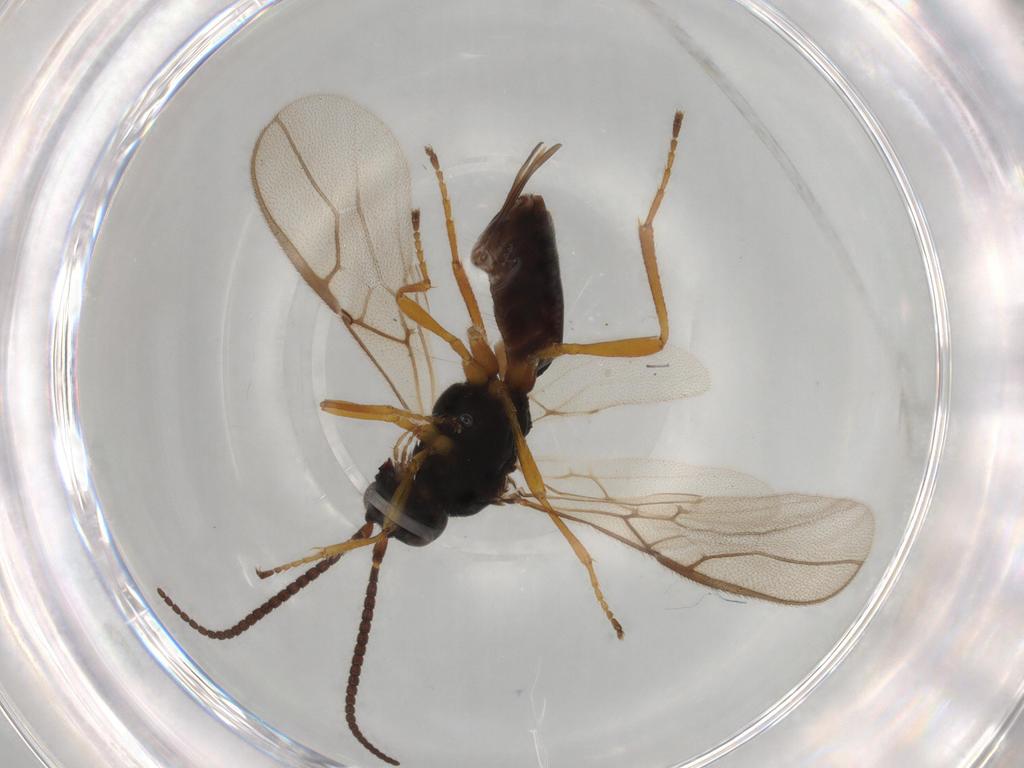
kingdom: Animalia
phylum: Arthropoda
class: Insecta
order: Hymenoptera
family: Braconidae
